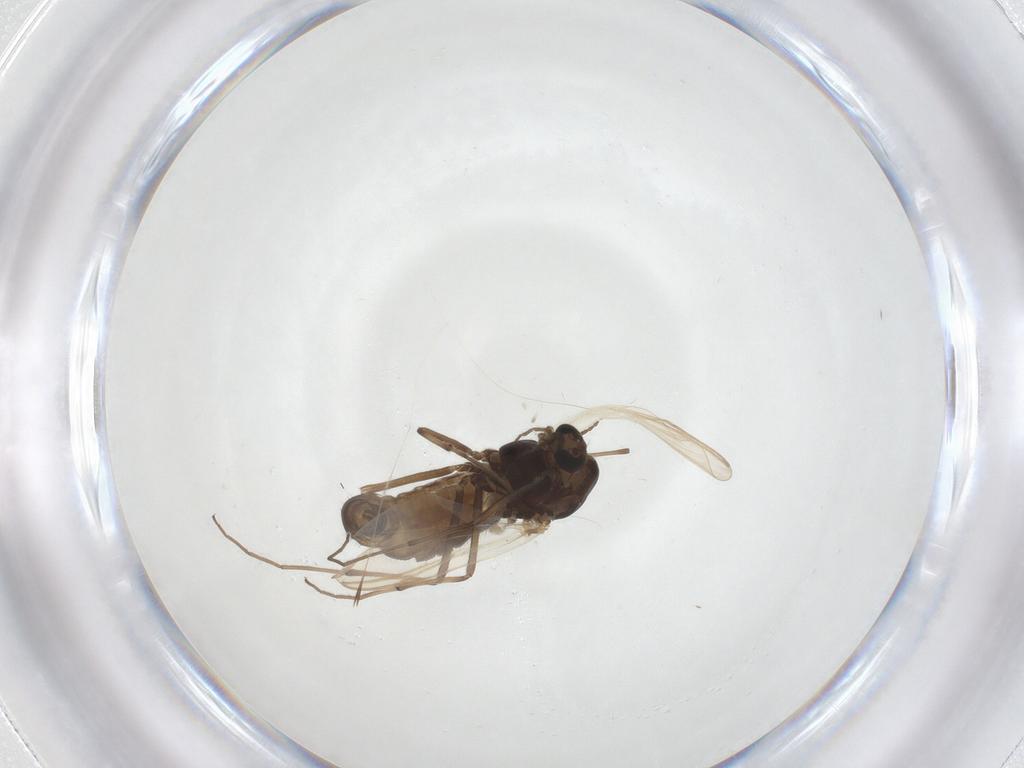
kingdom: Animalia
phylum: Arthropoda
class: Insecta
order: Diptera
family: Chironomidae
